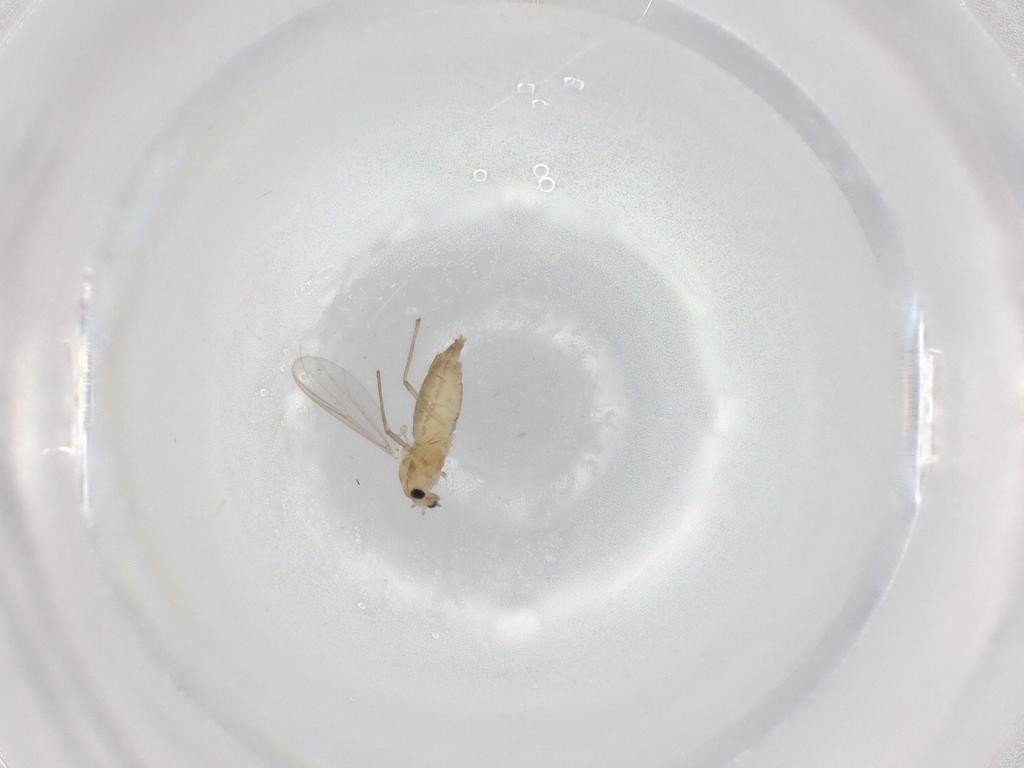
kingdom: Animalia
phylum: Arthropoda
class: Insecta
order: Diptera
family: Chironomidae
